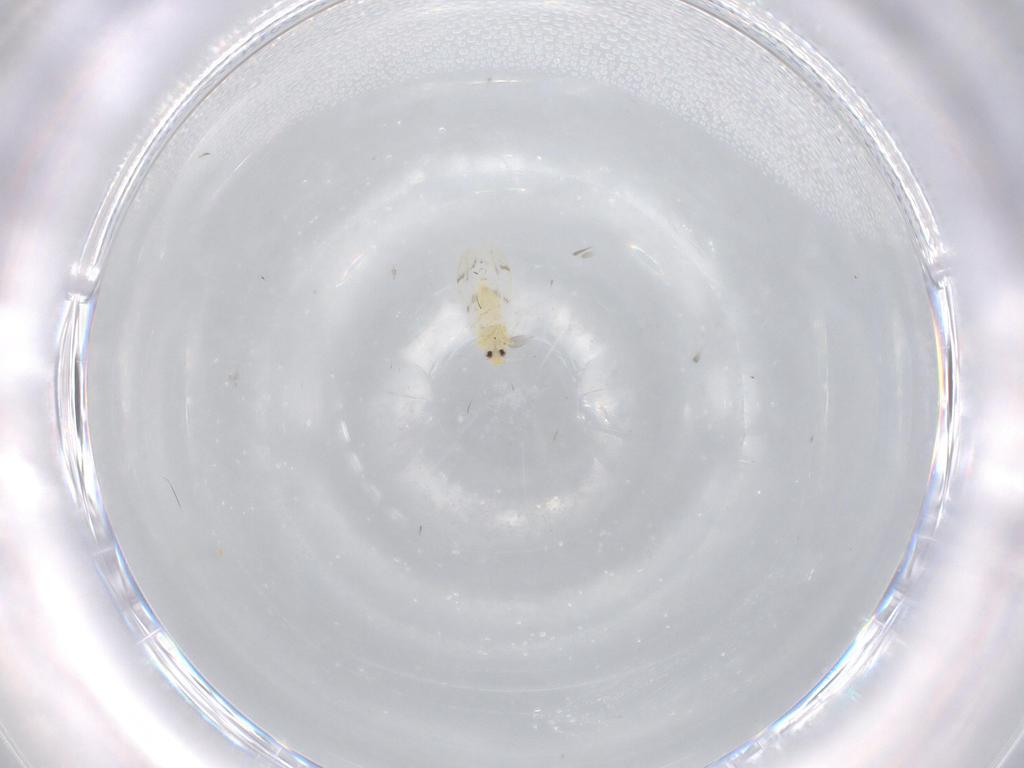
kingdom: Animalia
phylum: Arthropoda
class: Insecta
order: Hemiptera
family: Aleyrodidae
